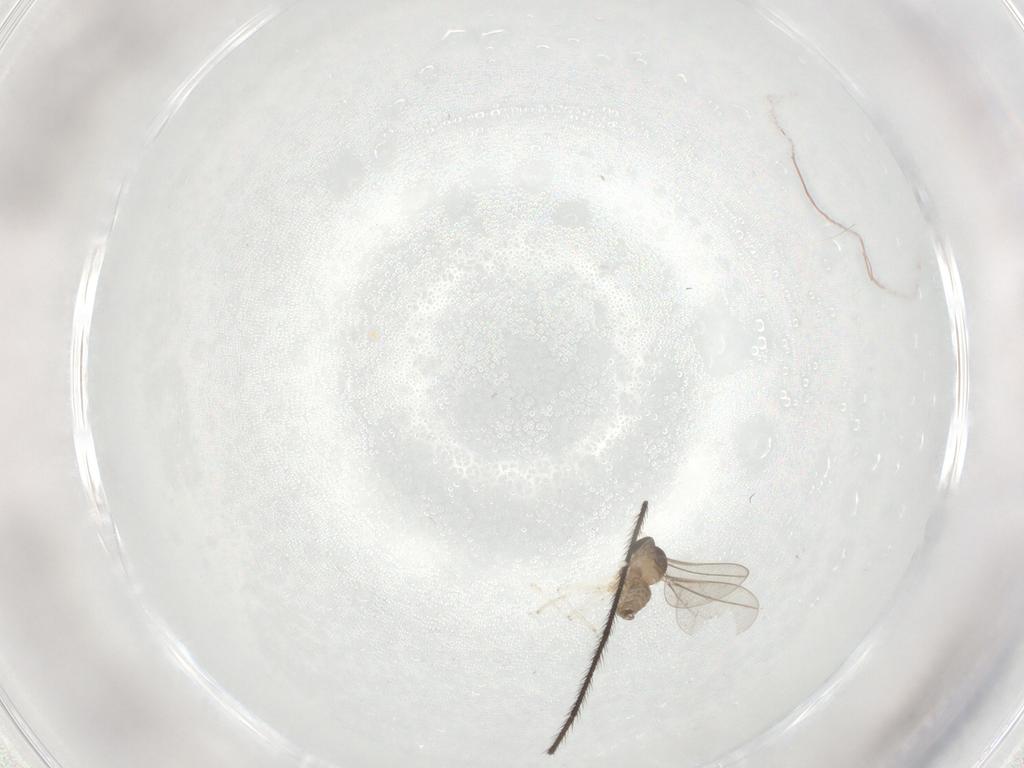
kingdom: Animalia
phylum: Arthropoda
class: Insecta
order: Diptera
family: Cecidomyiidae
